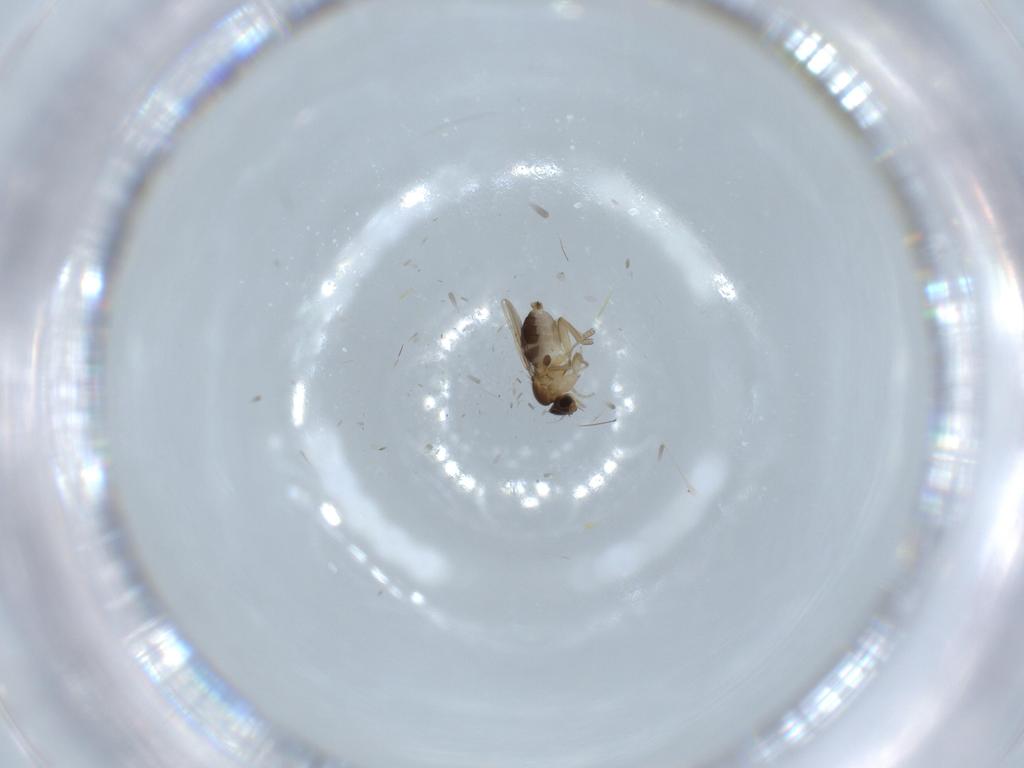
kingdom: Animalia
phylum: Arthropoda
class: Insecta
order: Diptera
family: Phoridae
